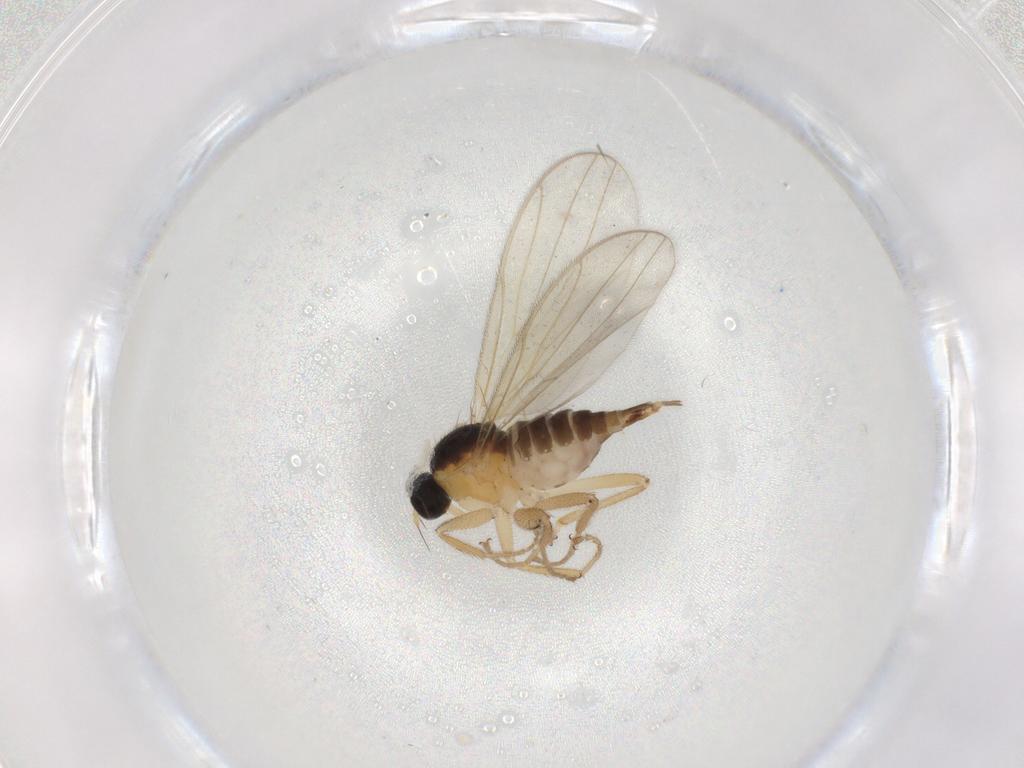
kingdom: Animalia
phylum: Arthropoda
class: Insecta
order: Diptera
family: Hybotidae
